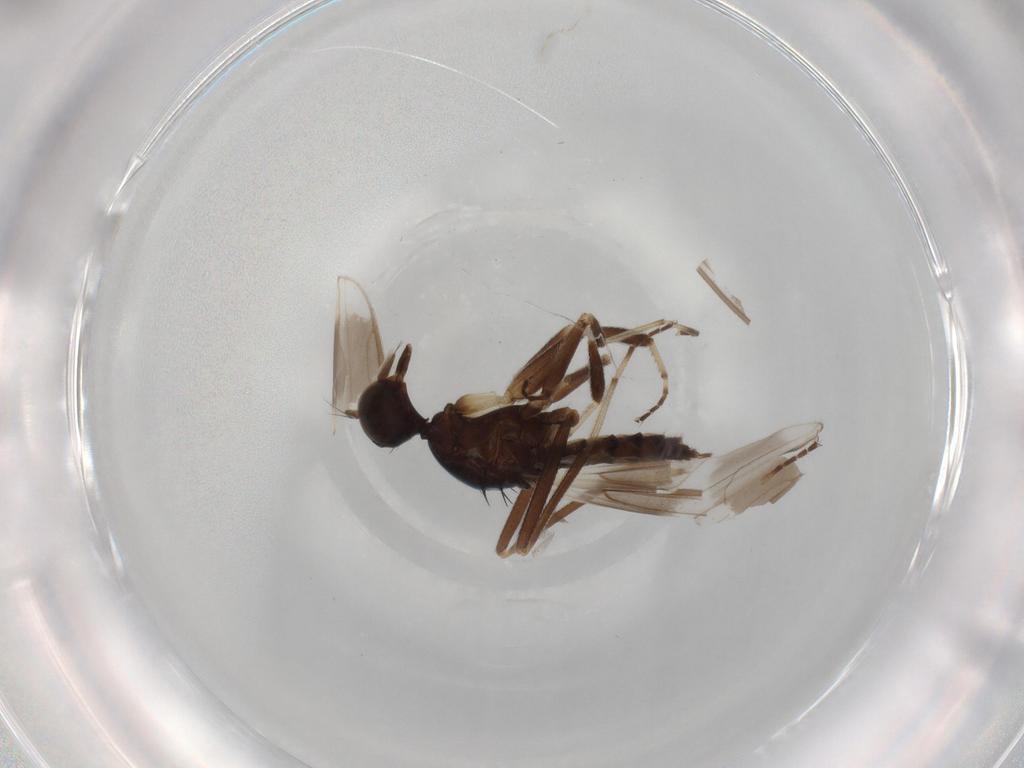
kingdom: Animalia
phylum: Arthropoda
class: Insecta
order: Diptera
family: Hybotidae
